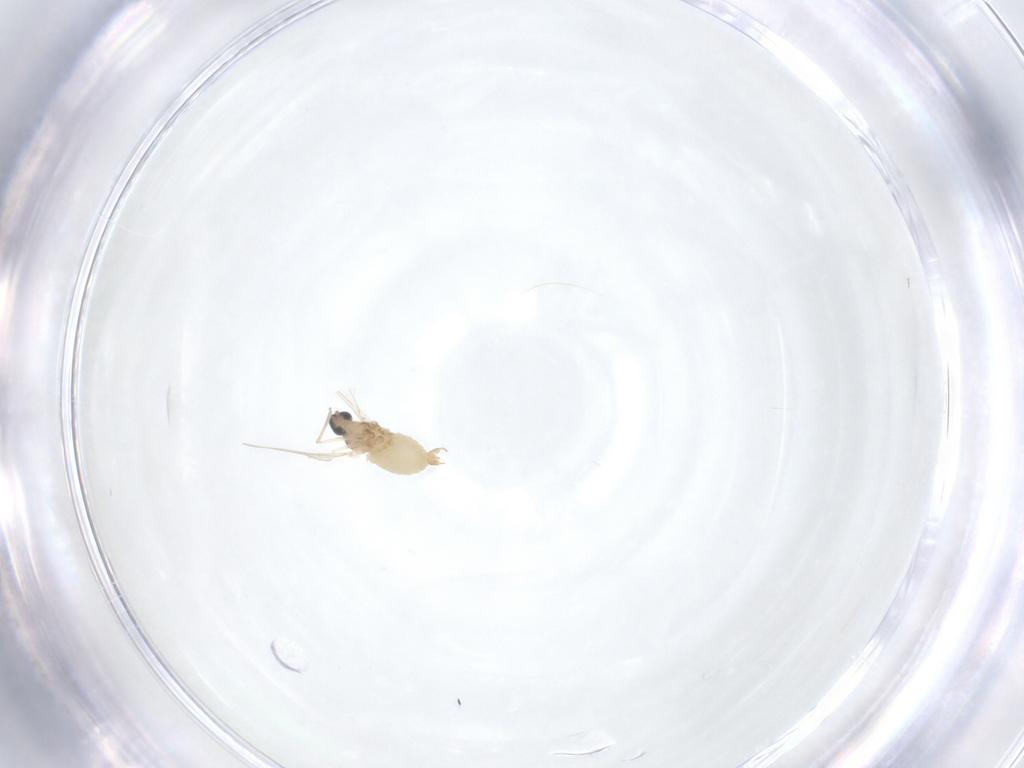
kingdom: Animalia
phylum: Arthropoda
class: Insecta
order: Diptera
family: Cecidomyiidae
